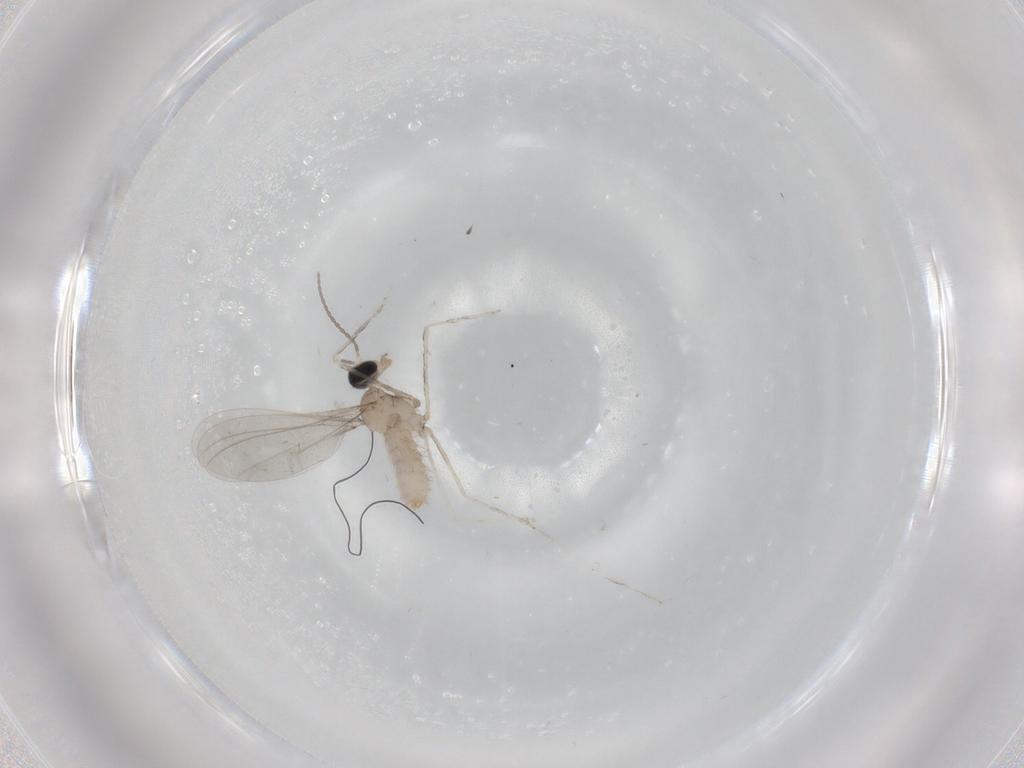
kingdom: Animalia
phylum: Arthropoda
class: Insecta
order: Diptera
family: Cecidomyiidae
